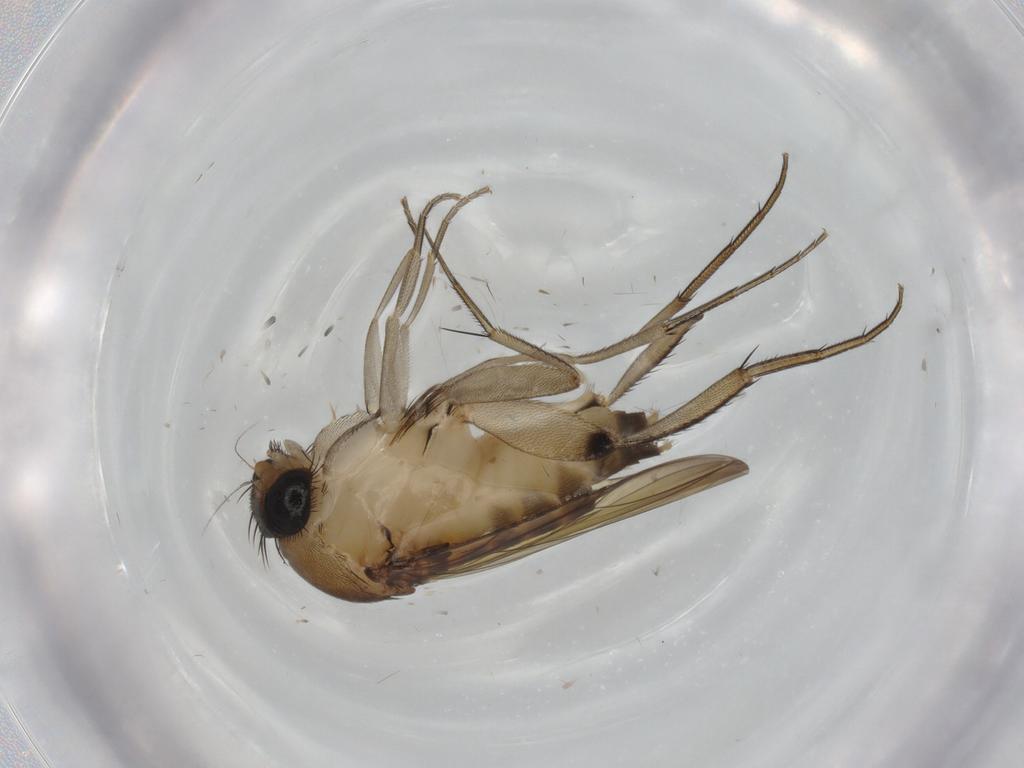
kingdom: Animalia
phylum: Arthropoda
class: Insecta
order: Diptera
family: Phoridae
